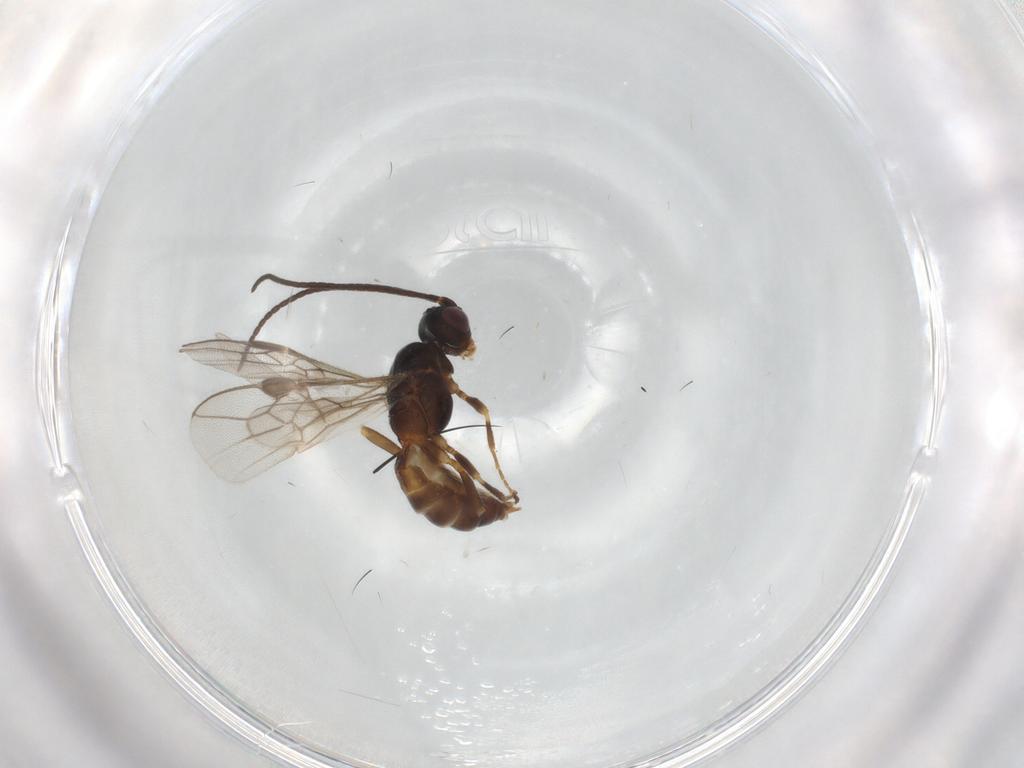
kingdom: Animalia
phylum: Arthropoda
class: Insecta
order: Hymenoptera
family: Braconidae
